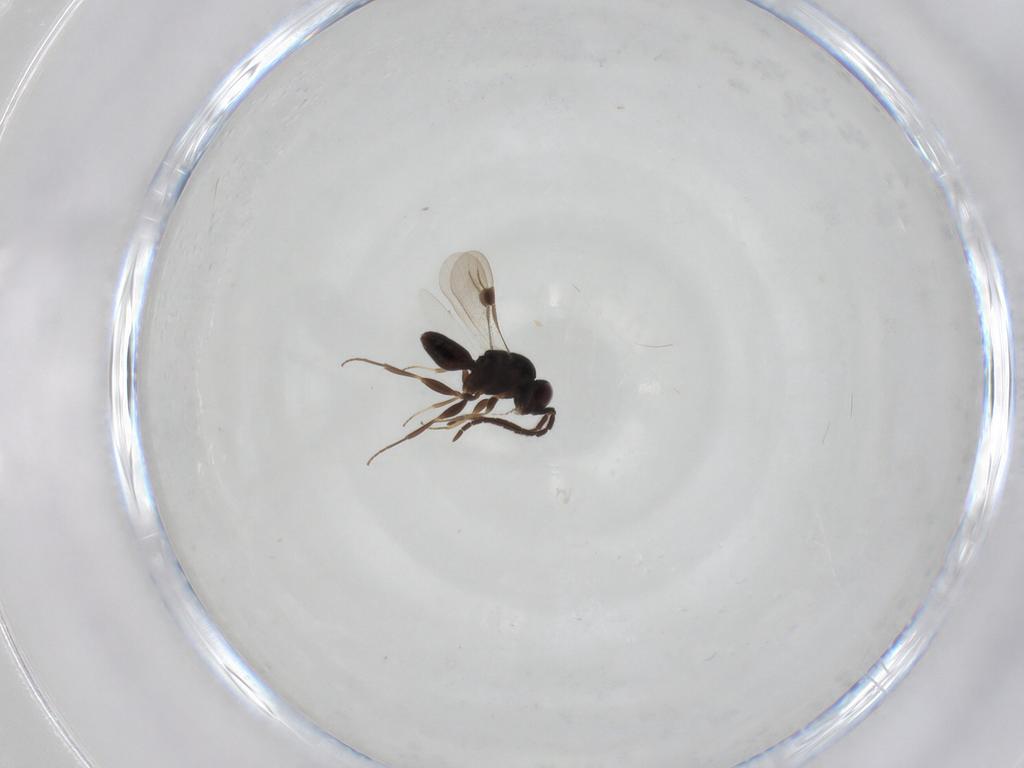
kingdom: Animalia
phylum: Arthropoda
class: Insecta
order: Hymenoptera
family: Megaspilidae
